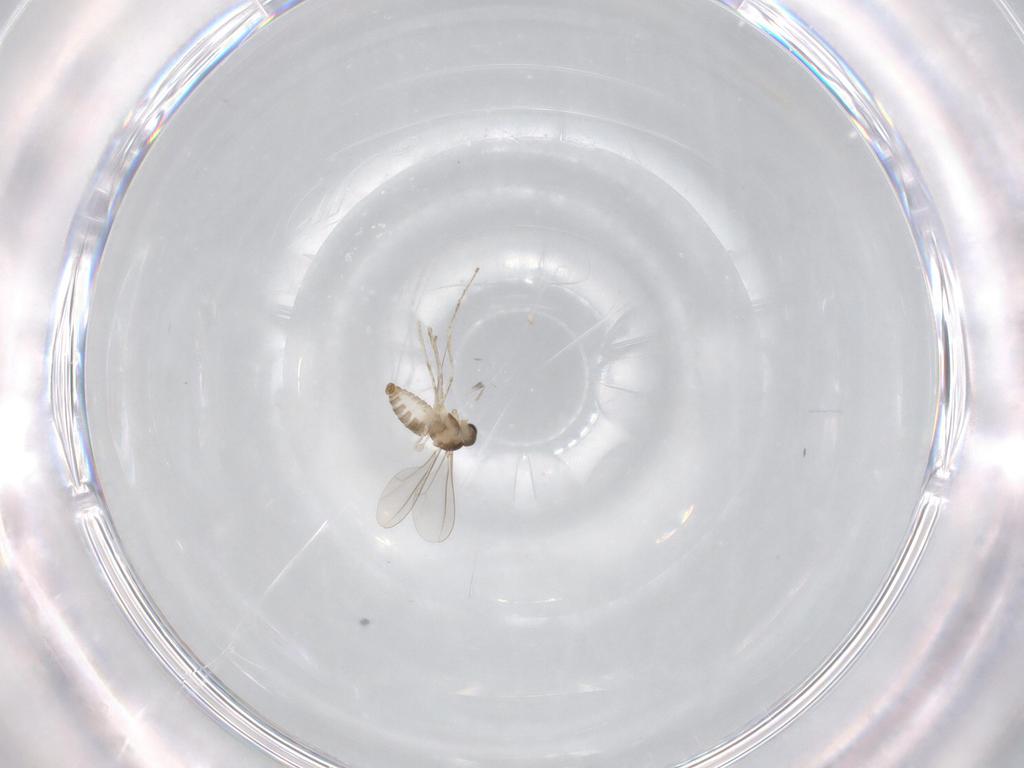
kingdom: Animalia
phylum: Arthropoda
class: Insecta
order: Diptera
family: Cecidomyiidae
